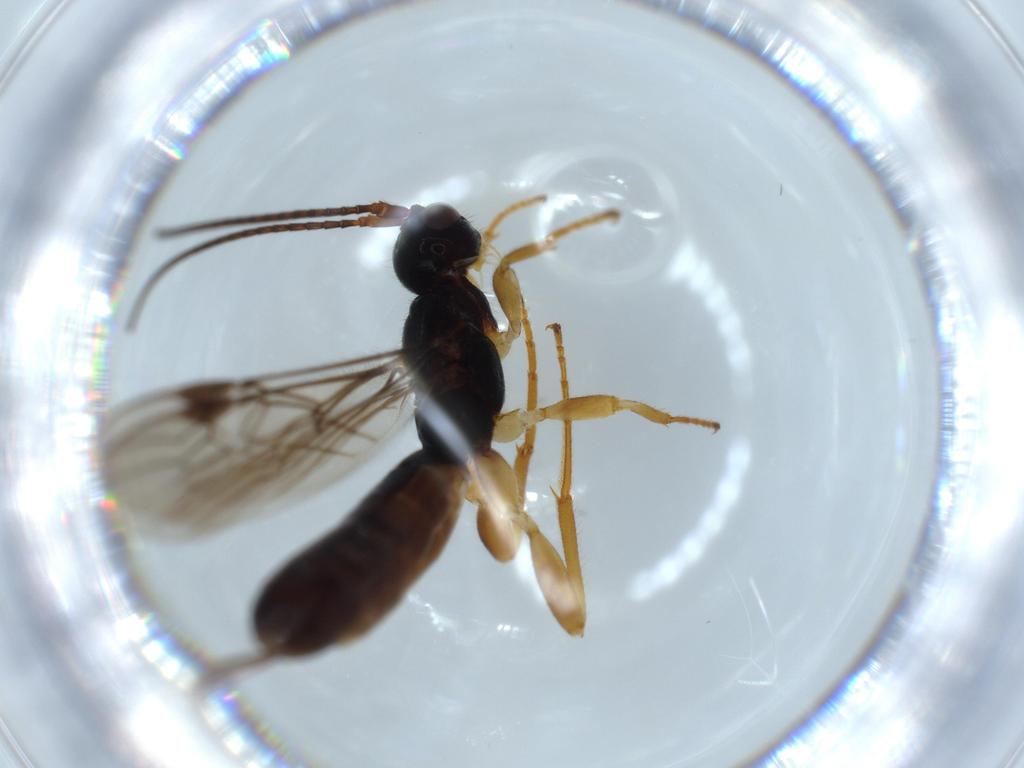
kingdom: Animalia
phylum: Arthropoda
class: Insecta
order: Hymenoptera
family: Braconidae
